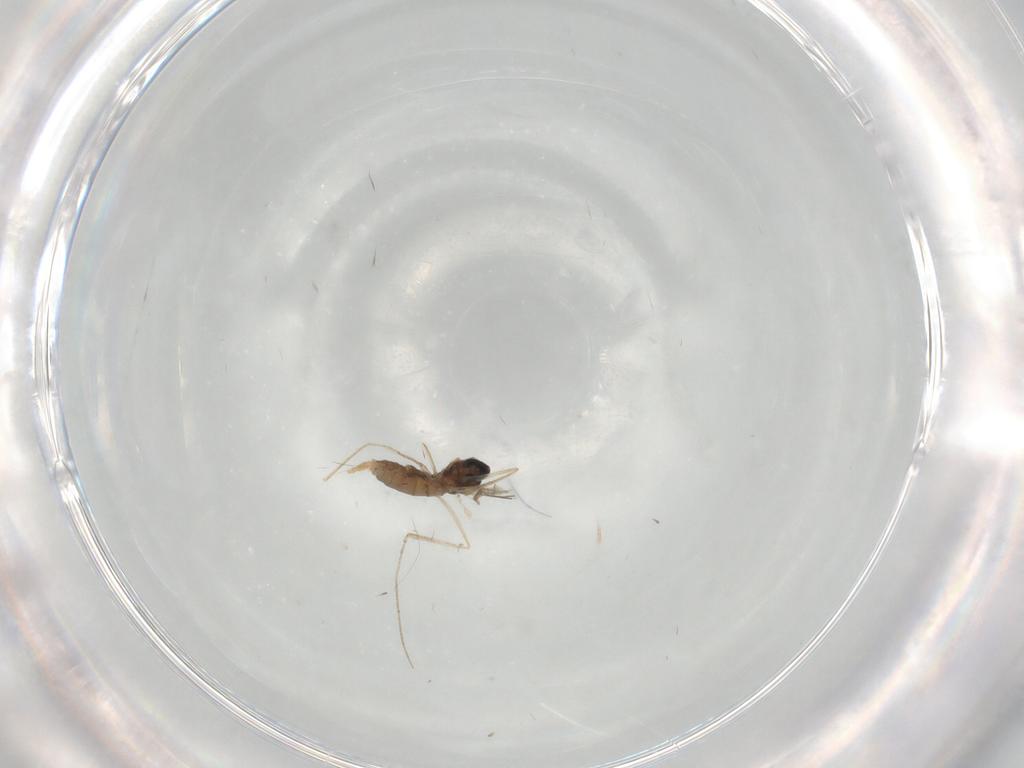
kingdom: Animalia
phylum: Arthropoda
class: Insecta
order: Diptera
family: Cecidomyiidae
